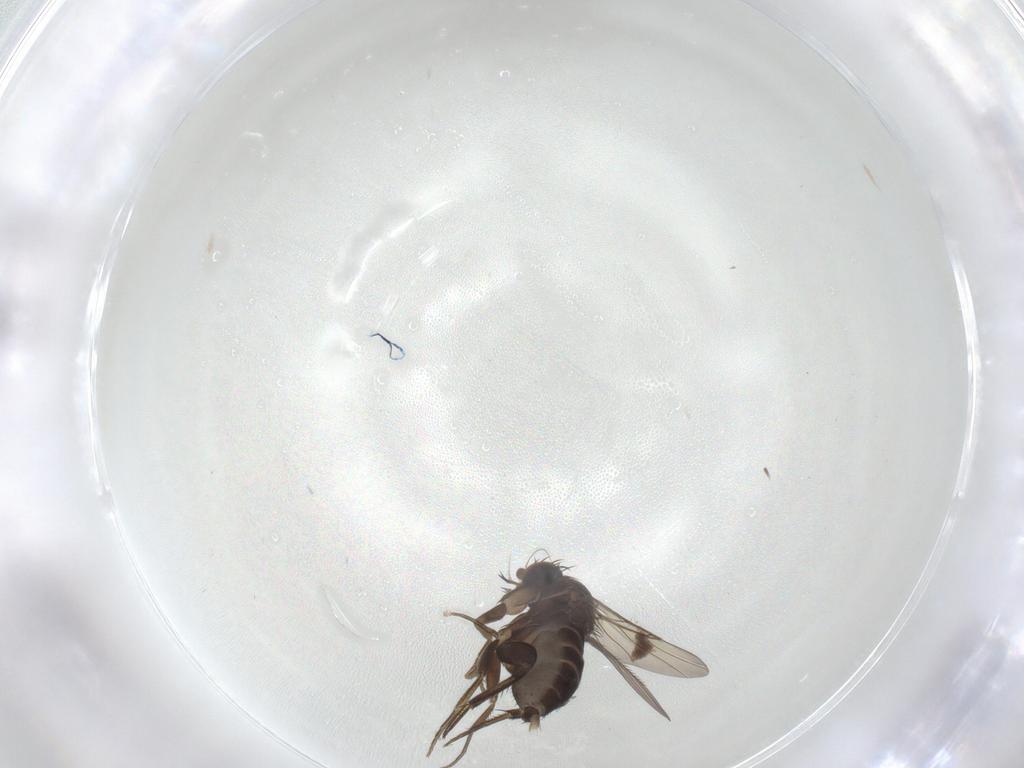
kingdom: Animalia
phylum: Arthropoda
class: Insecta
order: Diptera
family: Phoridae
